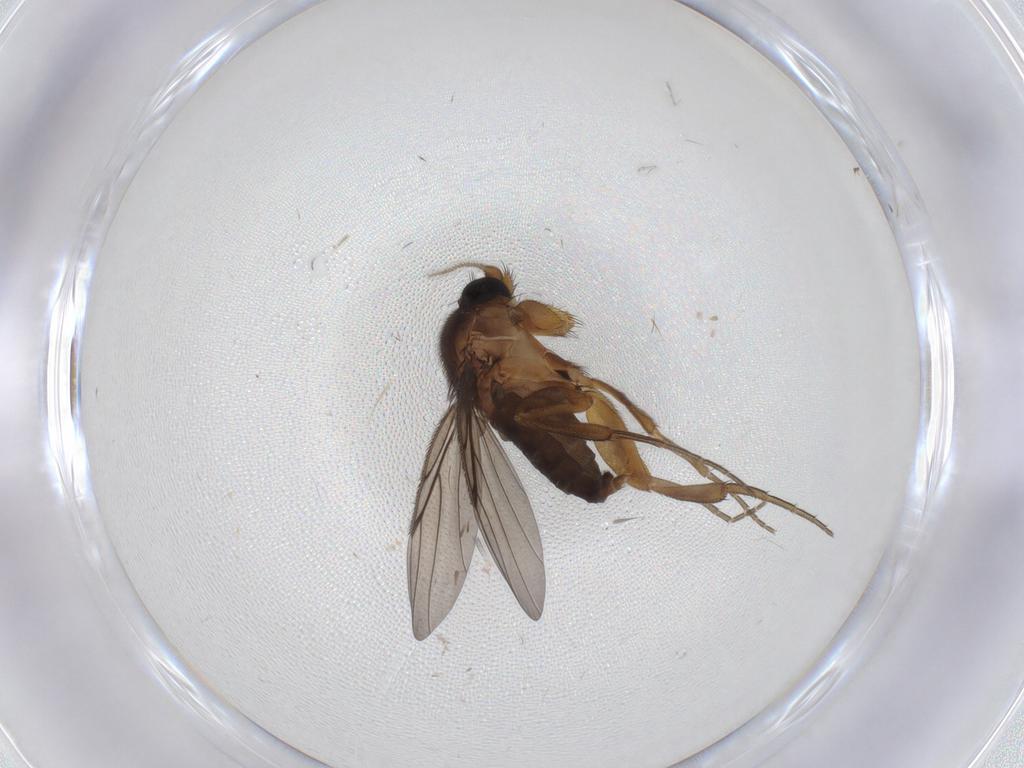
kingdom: Animalia
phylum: Arthropoda
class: Insecta
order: Diptera
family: Phoridae
